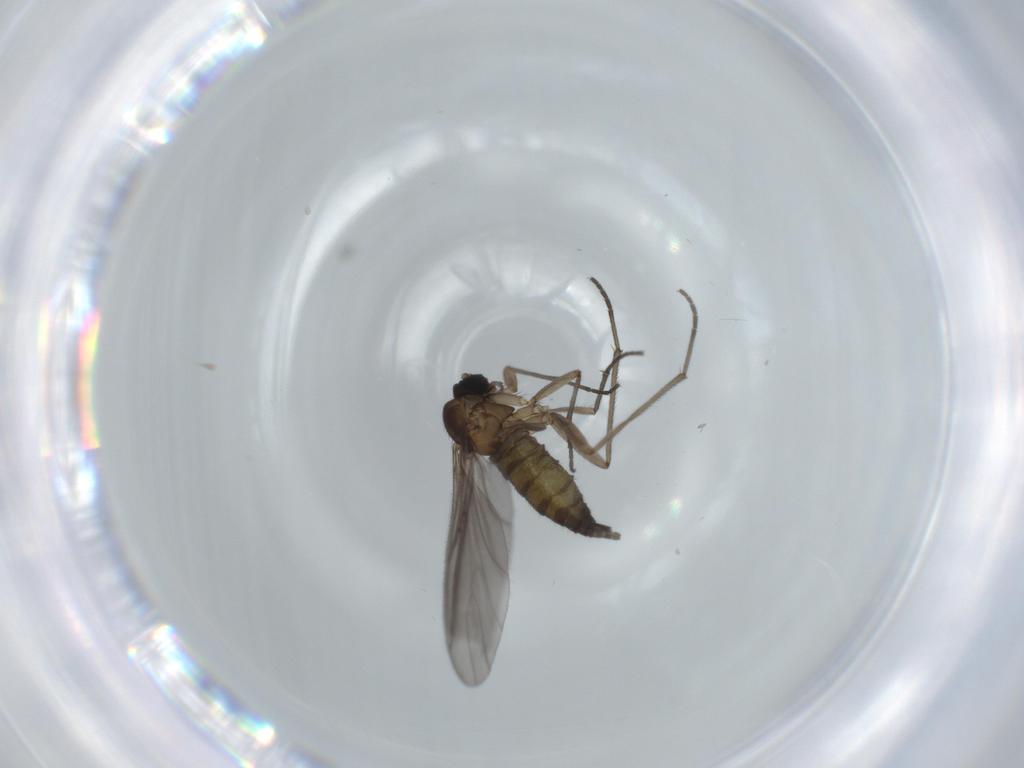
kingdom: Animalia
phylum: Arthropoda
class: Insecta
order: Diptera
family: Sciaridae
